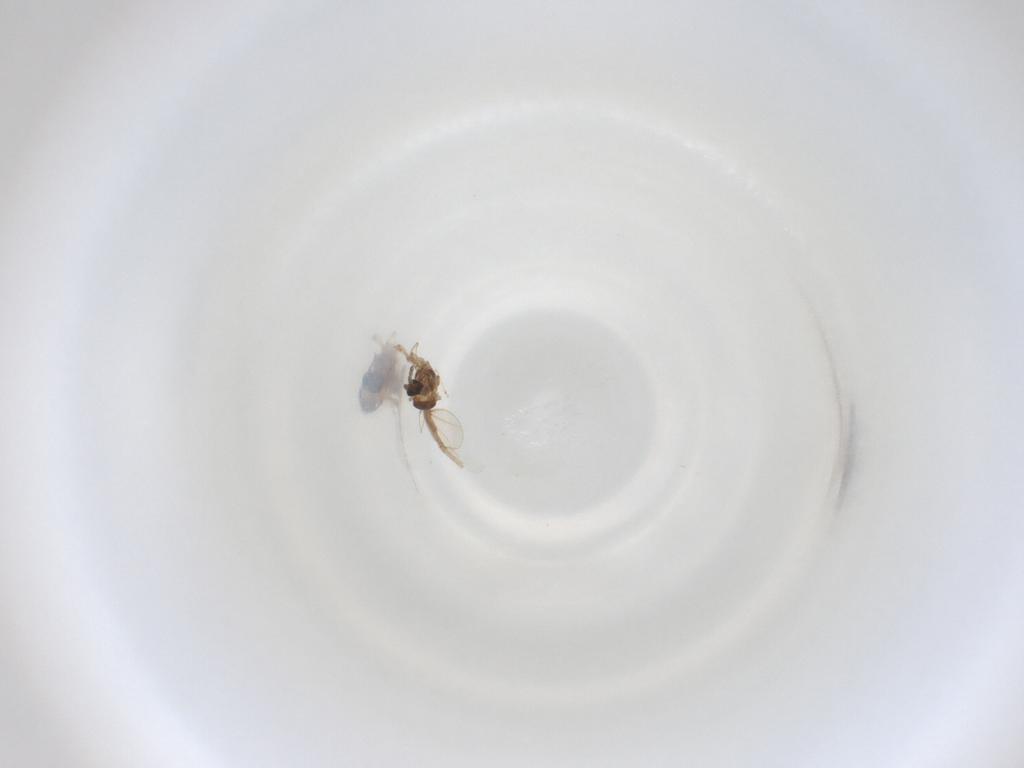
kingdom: Animalia
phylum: Arthropoda
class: Insecta
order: Diptera
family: Cecidomyiidae
